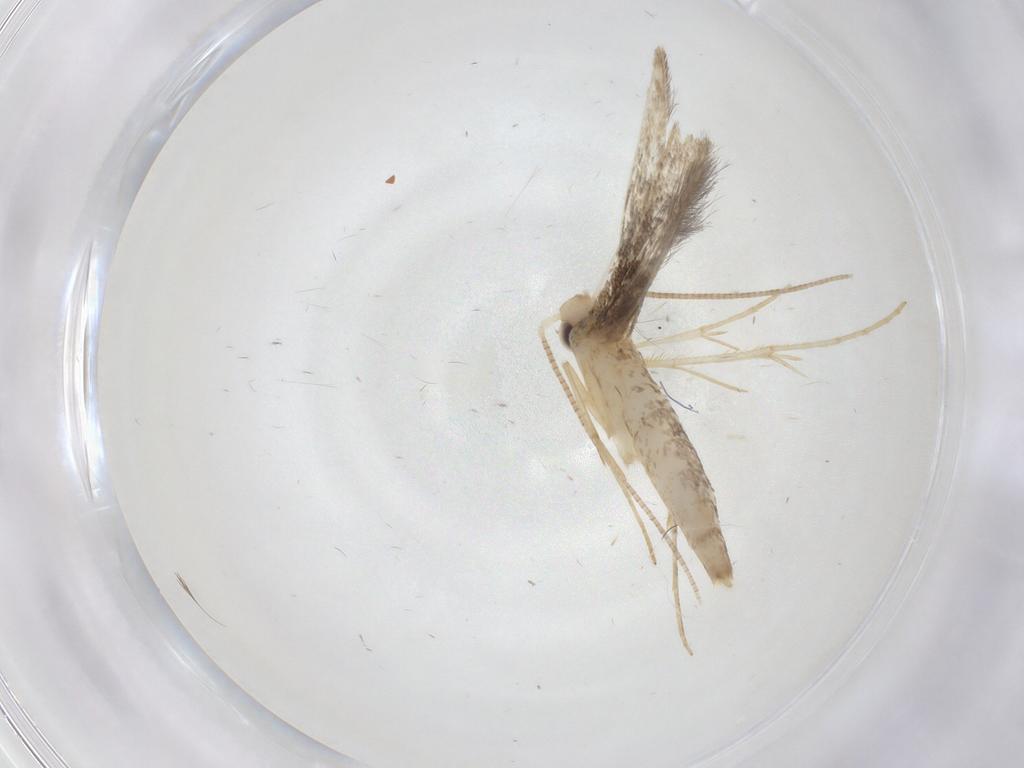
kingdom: Animalia
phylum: Arthropoda
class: Insecta
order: Lepidoptera
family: Gracillariidae
